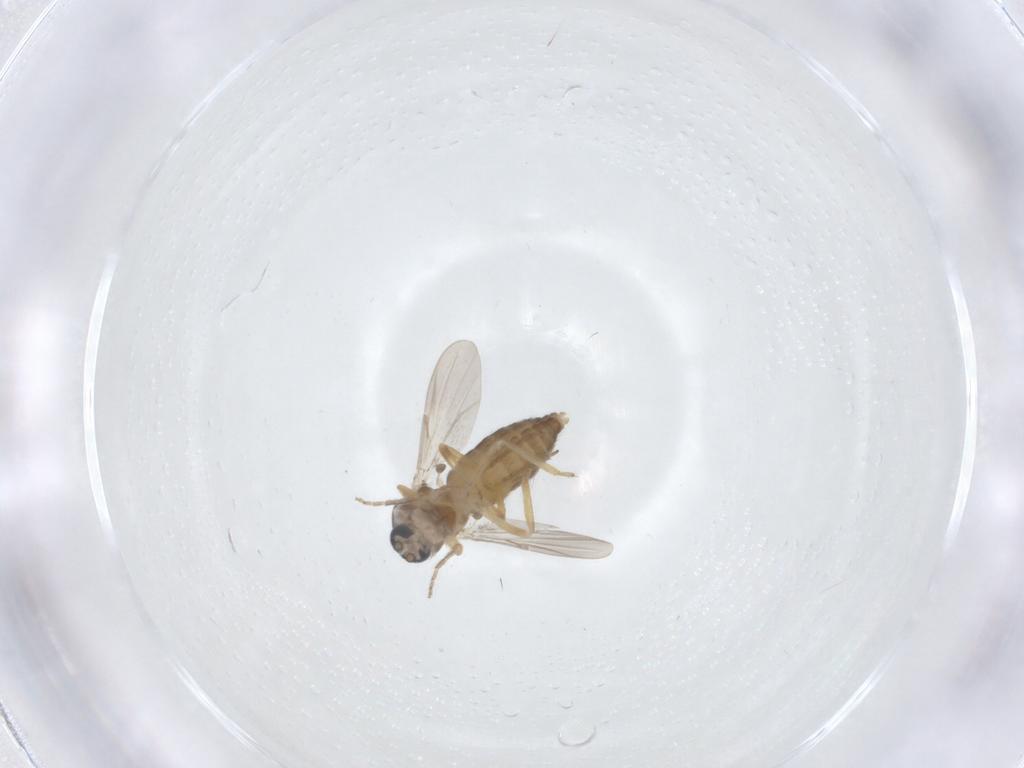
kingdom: Animalia
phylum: Arthropoda
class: Insecta
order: Diptera
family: Ceratopogonidae
